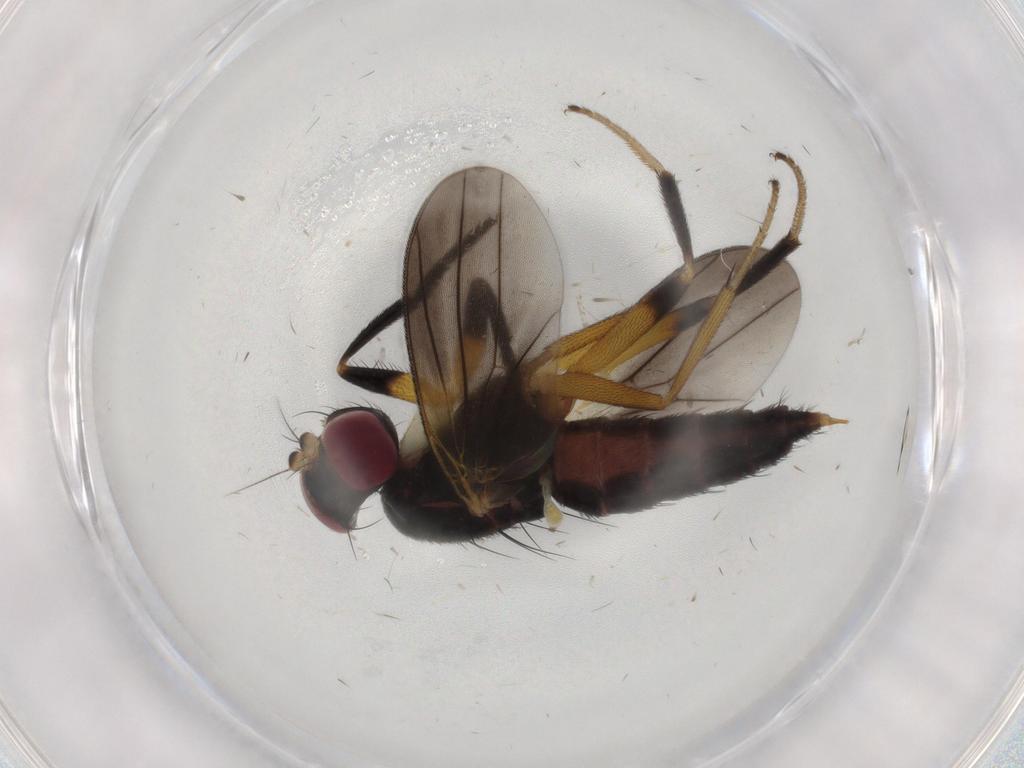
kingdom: Animalia
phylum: Arthropoda
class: Insecta
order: Diptera
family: Clusiidae
